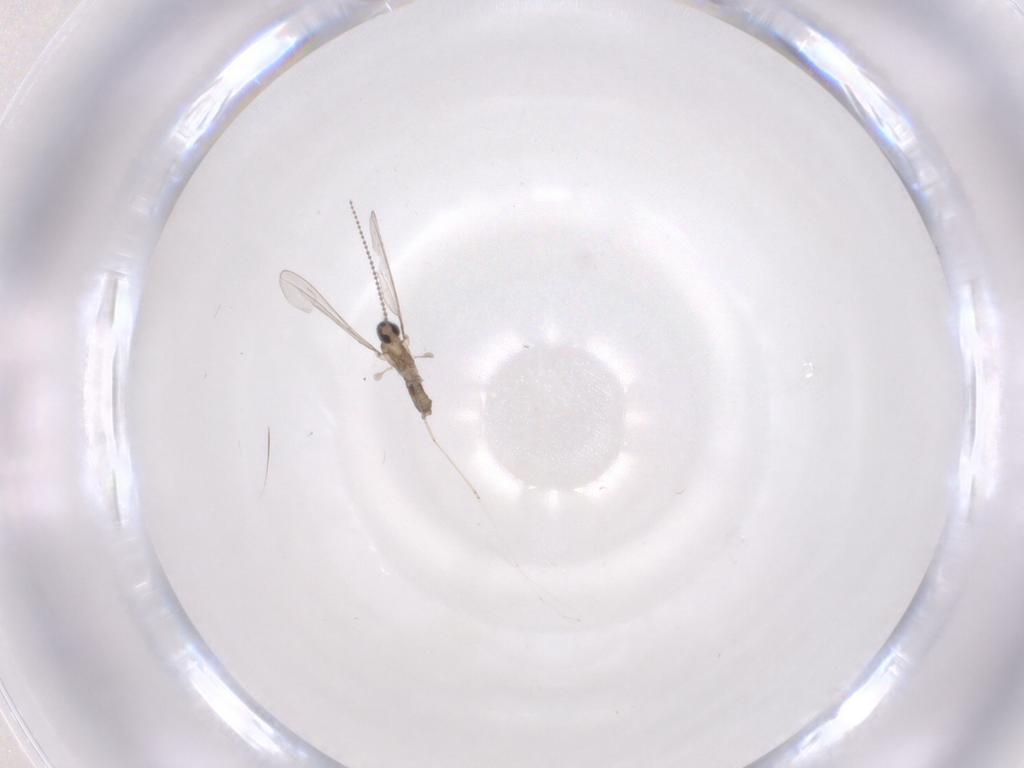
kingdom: Animalia
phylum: Arthropoda
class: Insecta
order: Diptera
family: Cecidomyiidae
